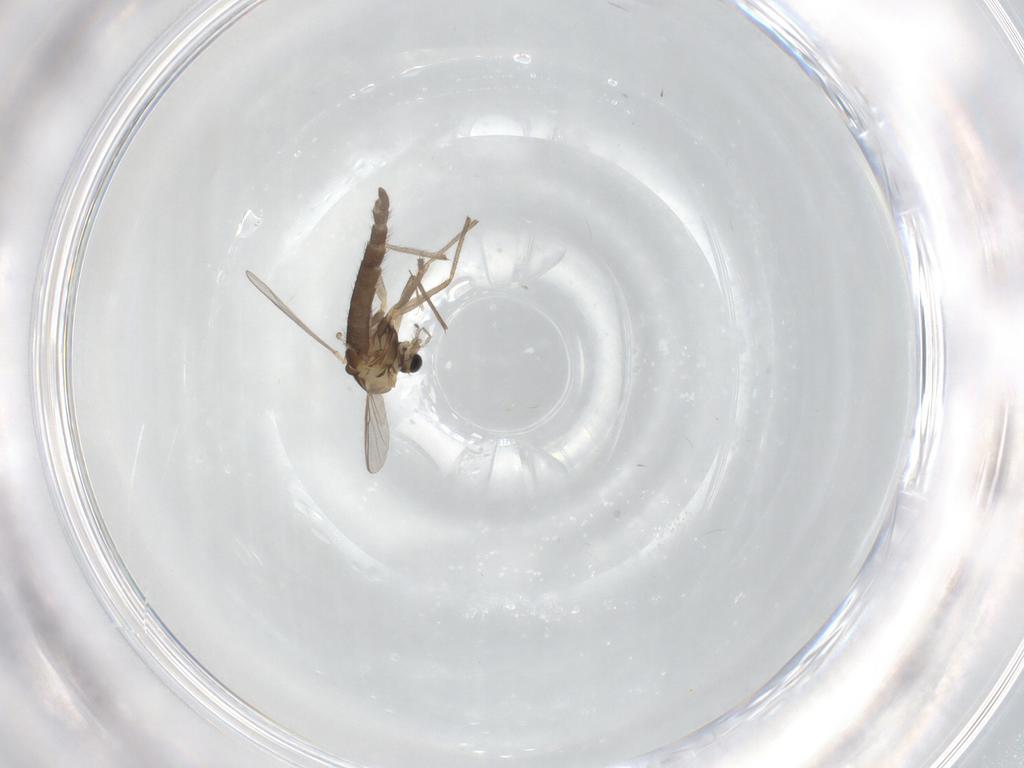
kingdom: Animalia
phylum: Arthropoda
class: Insecta
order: Diptera
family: Chironomidae
